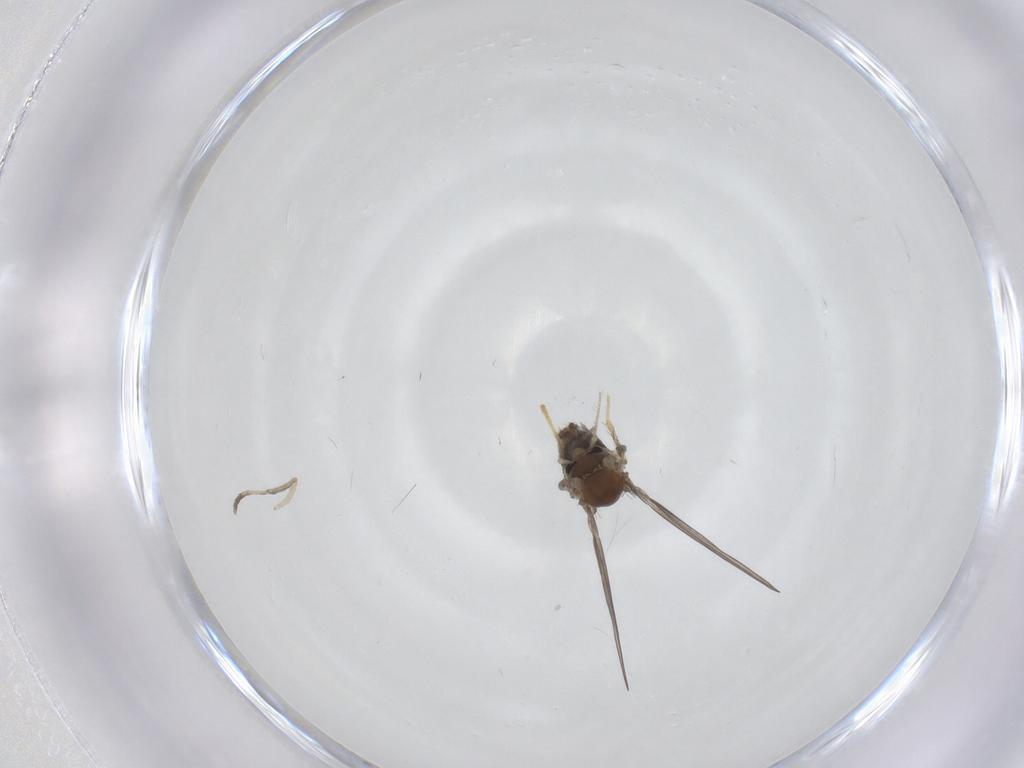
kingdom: Animalia
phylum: Arthropoda
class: Insecta
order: Diptera
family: Psychodidae
